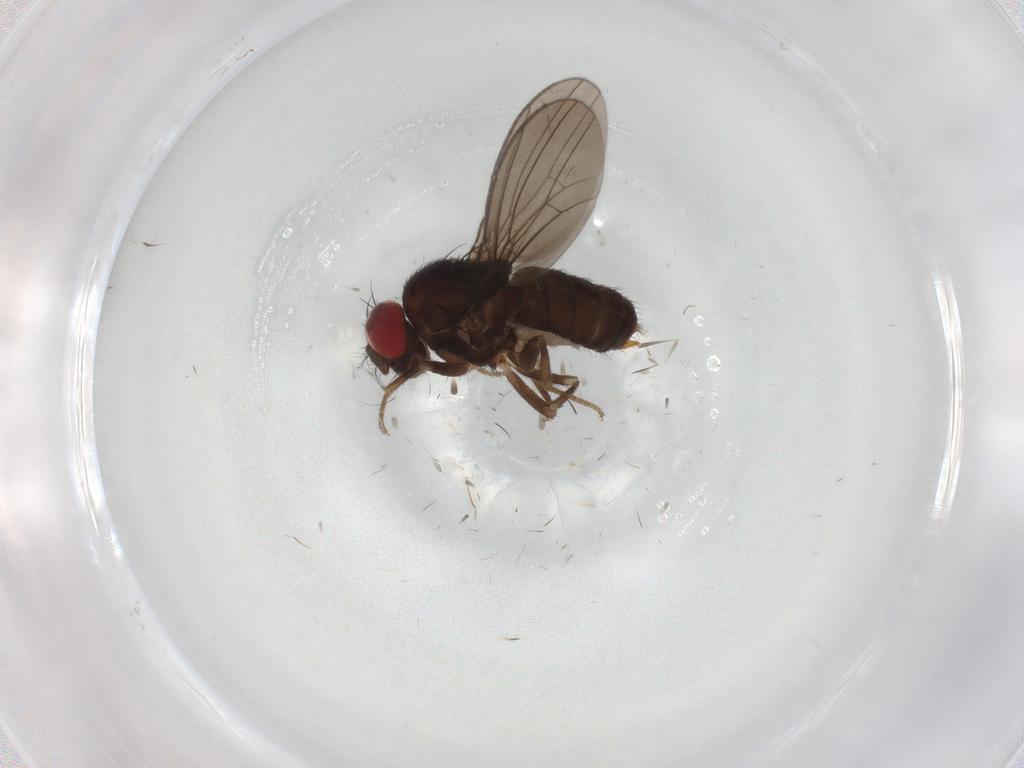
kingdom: Animalia
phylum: Arthropoda
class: Insecta
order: Diptera
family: Drosophilidae
